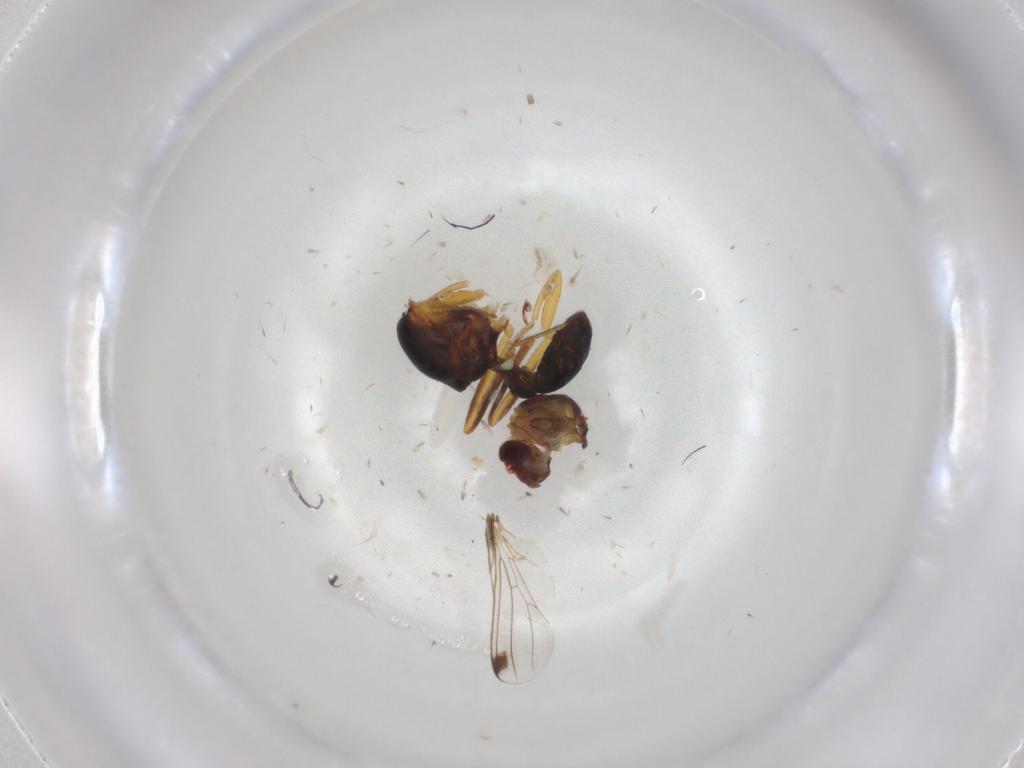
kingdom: Animalia
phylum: Arthropoda
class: Insecta
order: Diptera
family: Sepsidae
